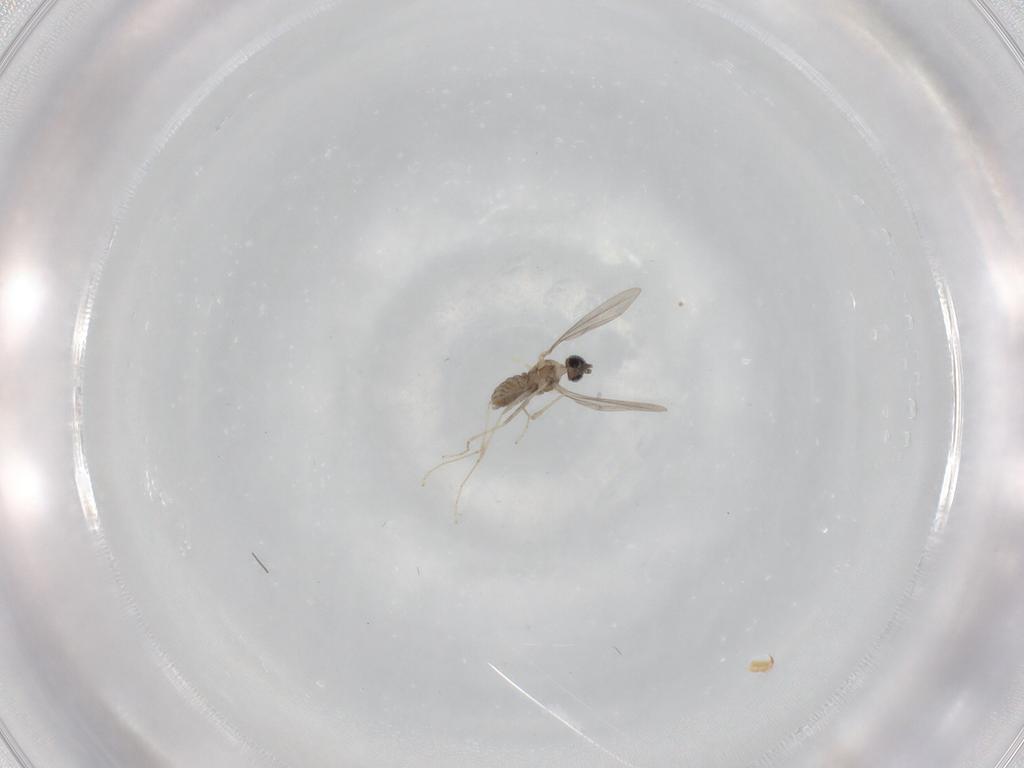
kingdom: Animalia
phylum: Arthropoda
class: Insecta
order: Diptera
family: Cecidomyiidae
